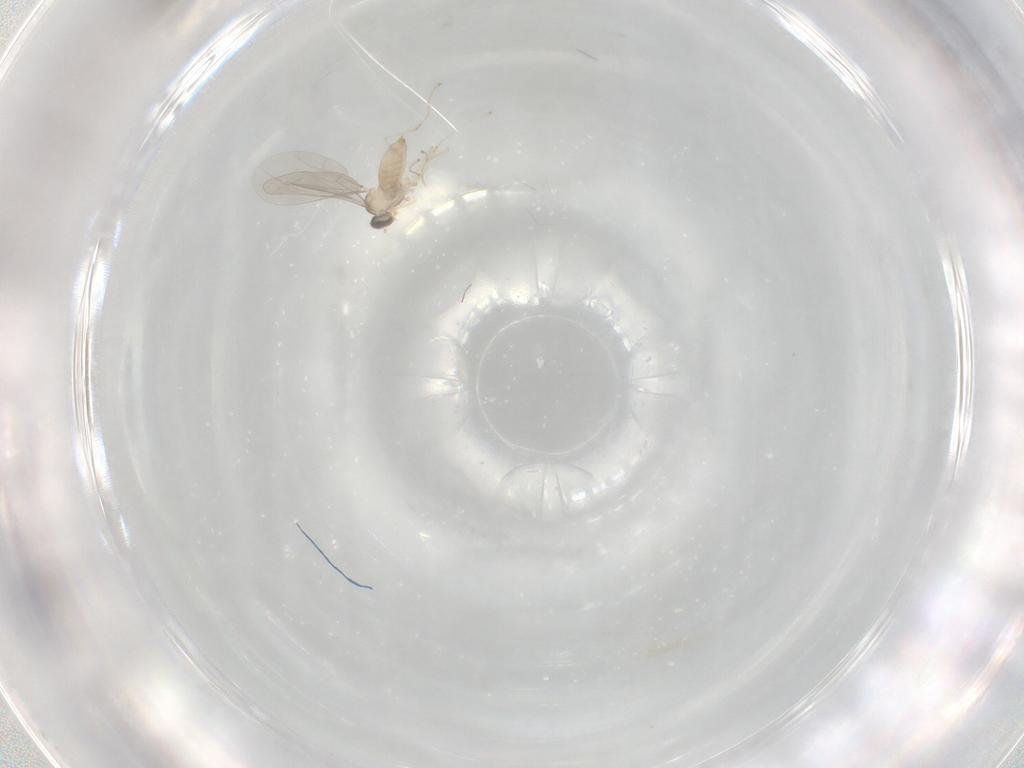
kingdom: Animalia
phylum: Arthropoda
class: Insecta
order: Diptera
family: Chironomidae
